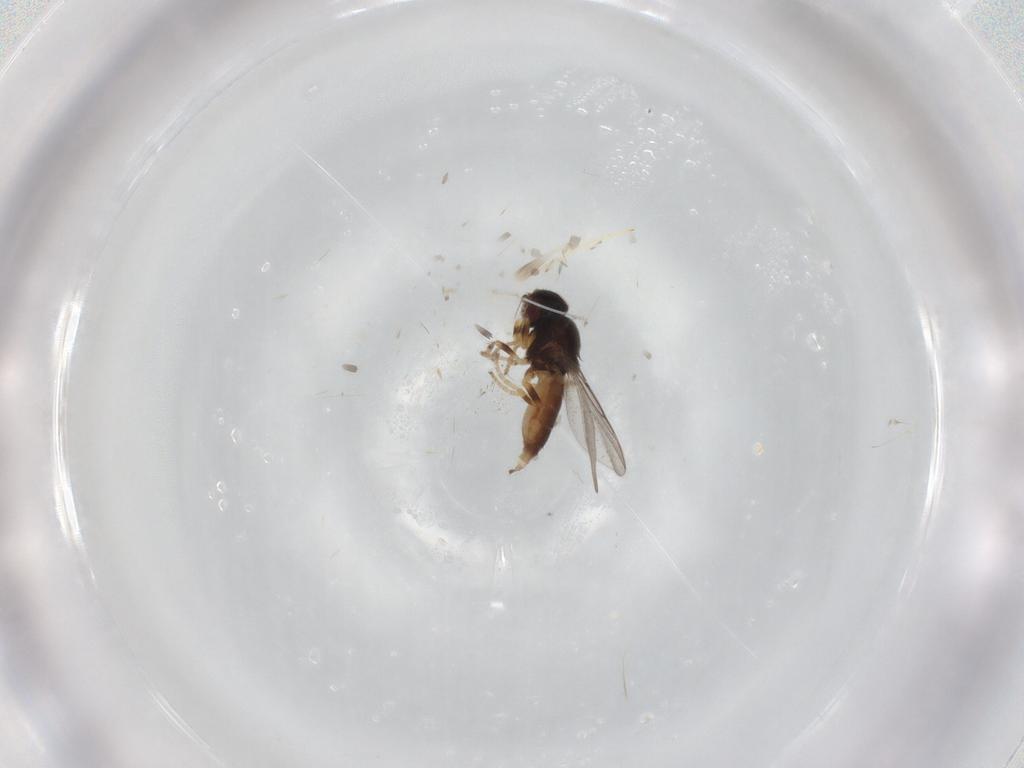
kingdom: Animalia
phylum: Arthropoda
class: Insecta
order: Diptera
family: Chloropidae
